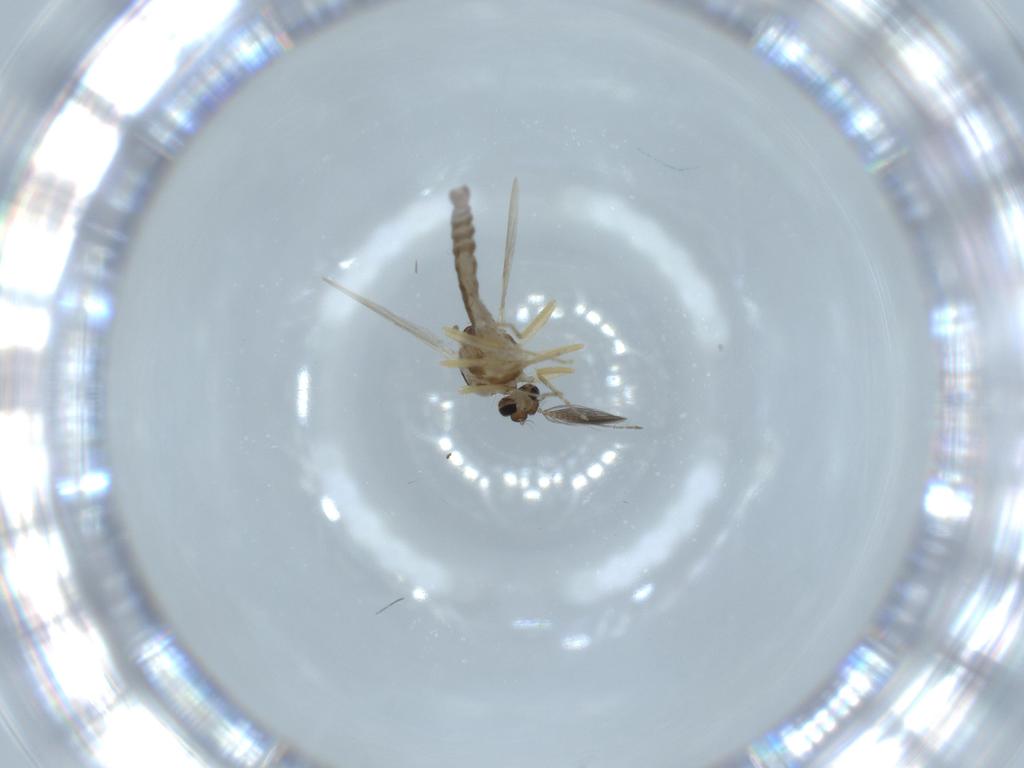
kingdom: Animalia
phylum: Arthropoda
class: Insecta
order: Diptera
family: Ceratopogonidae
